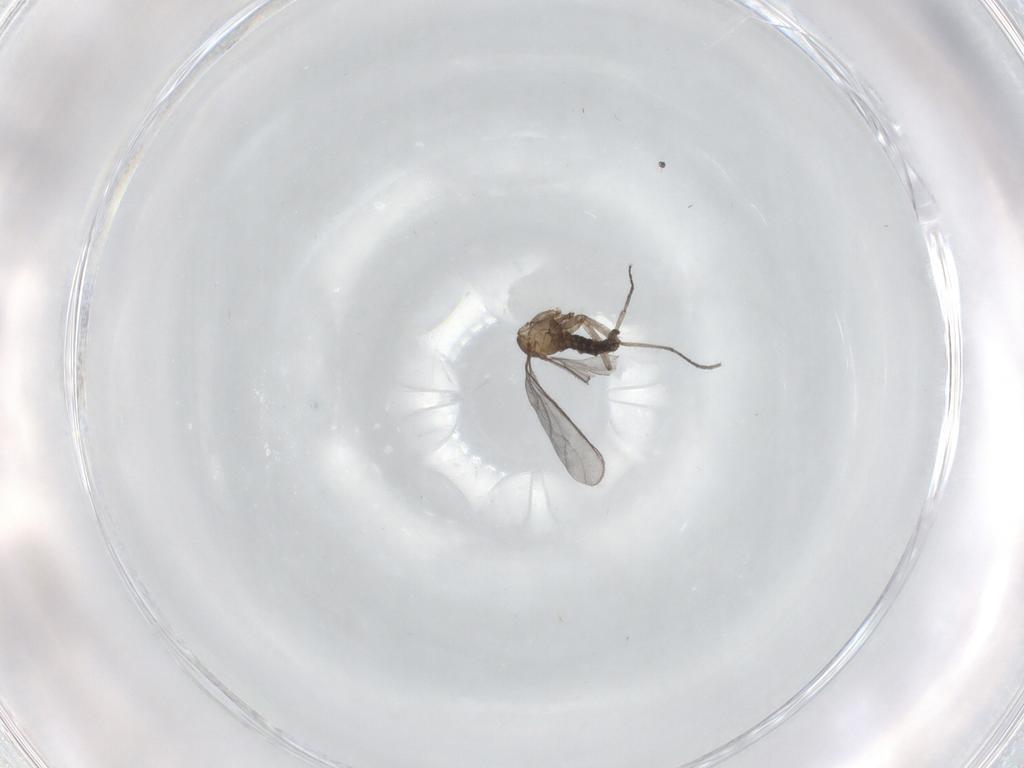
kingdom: Animalia
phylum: Arthropoda
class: Insecta
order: Diptera
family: Sciaridae
